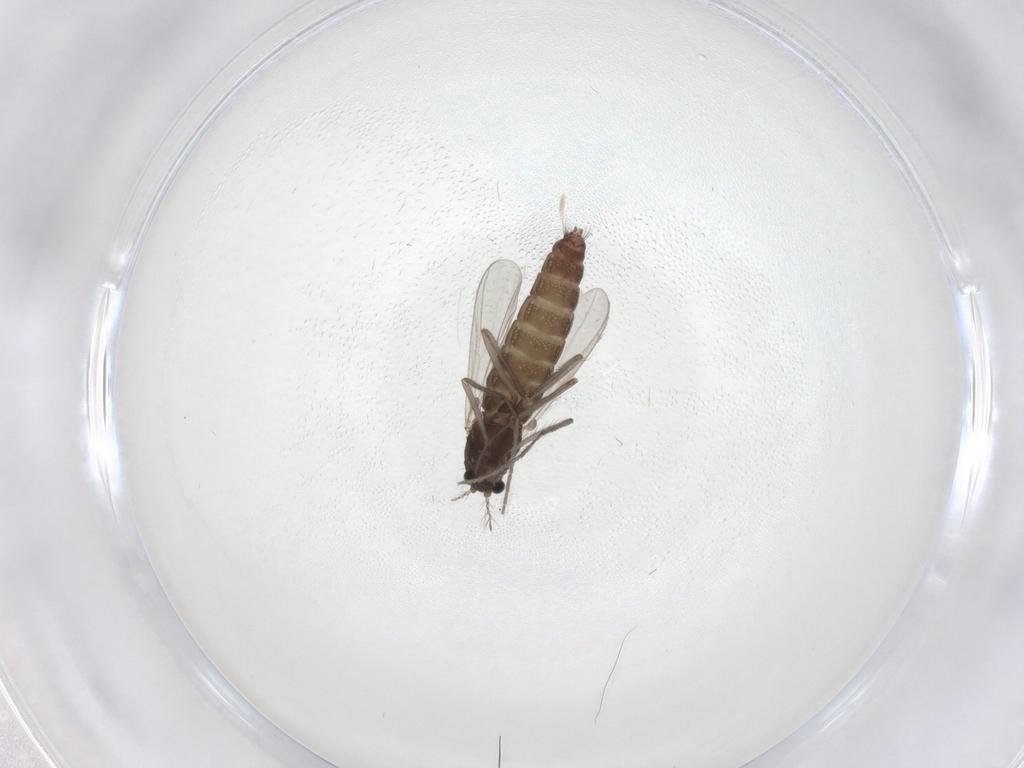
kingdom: Animalia
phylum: Arthropoda
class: Insecta
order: Diptera
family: Chironomidae
